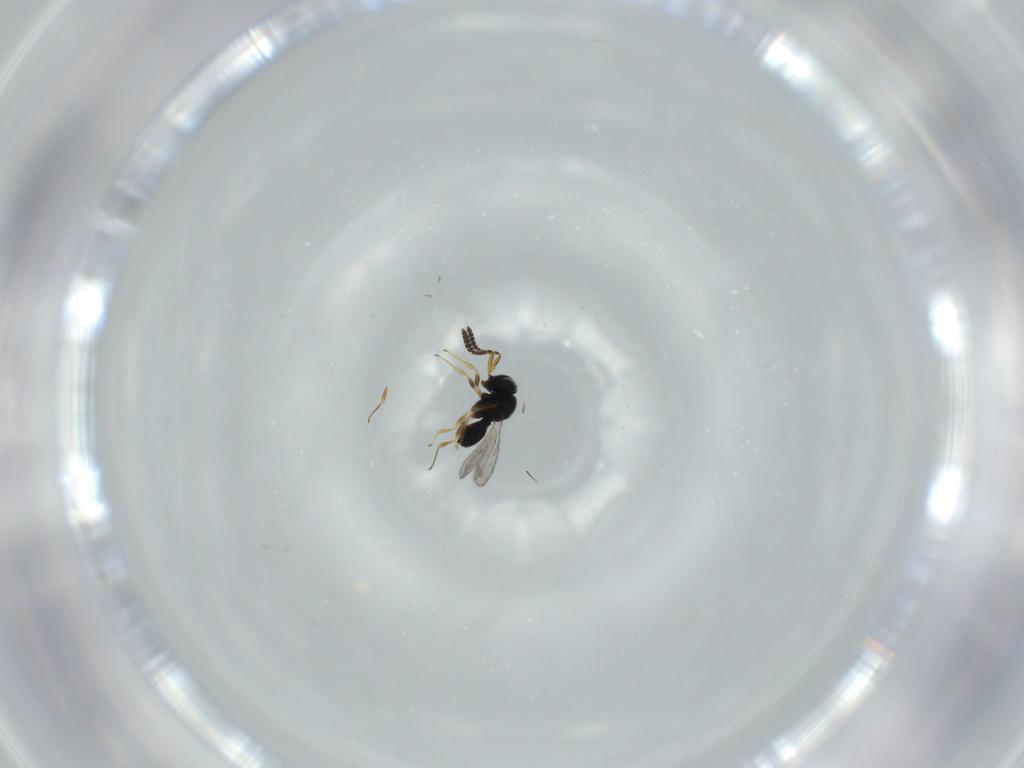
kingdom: Animalia
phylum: Arthropoda
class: Insecta
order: Hymenoptera
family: Scelionidae
